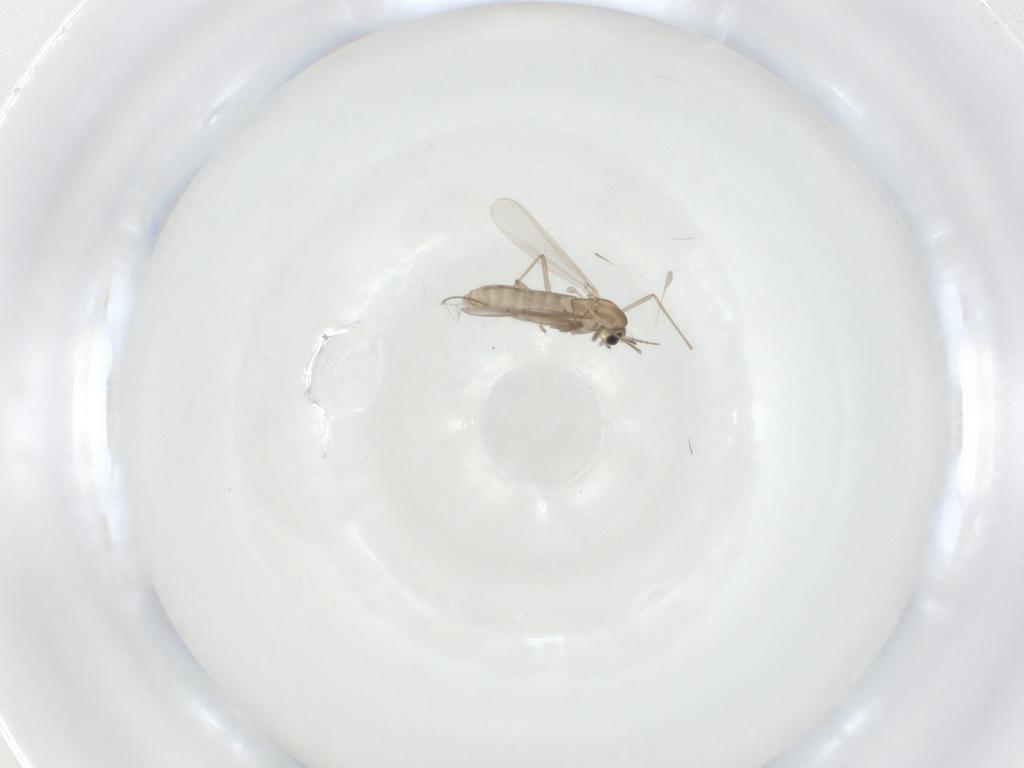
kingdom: Animalia
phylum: Arthropoda
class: Insecta
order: Diptera
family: Chironomidae
